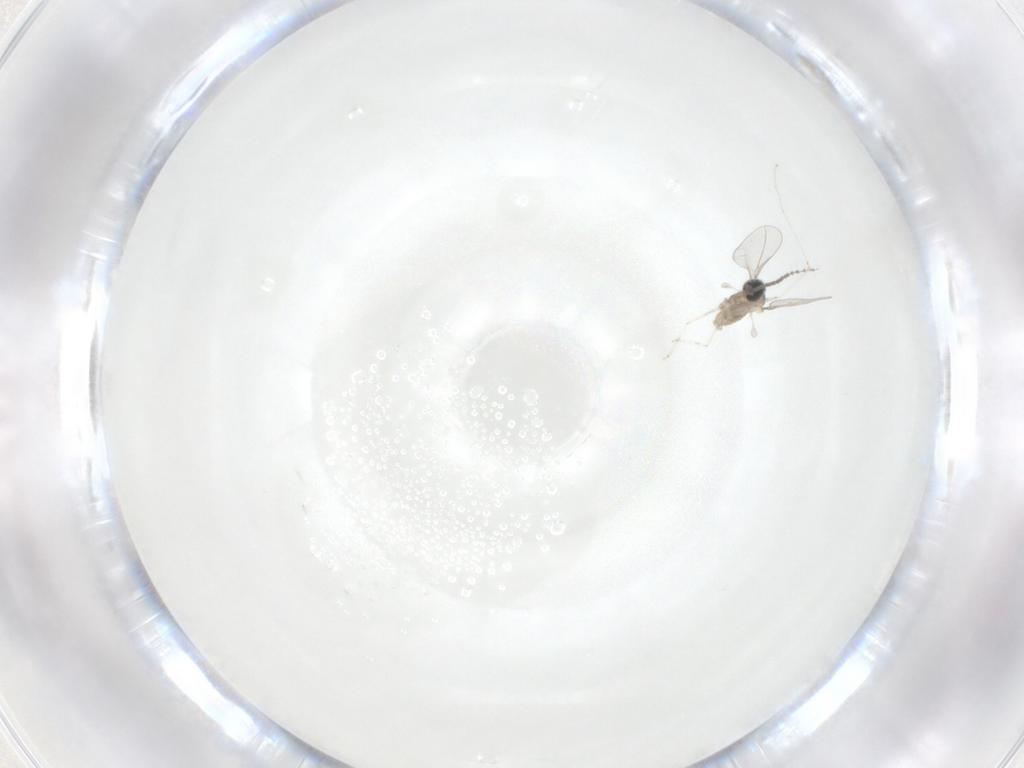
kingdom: Animalia
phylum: Arthropoda
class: Insecta
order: Diptera
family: Cecidomyiidae
